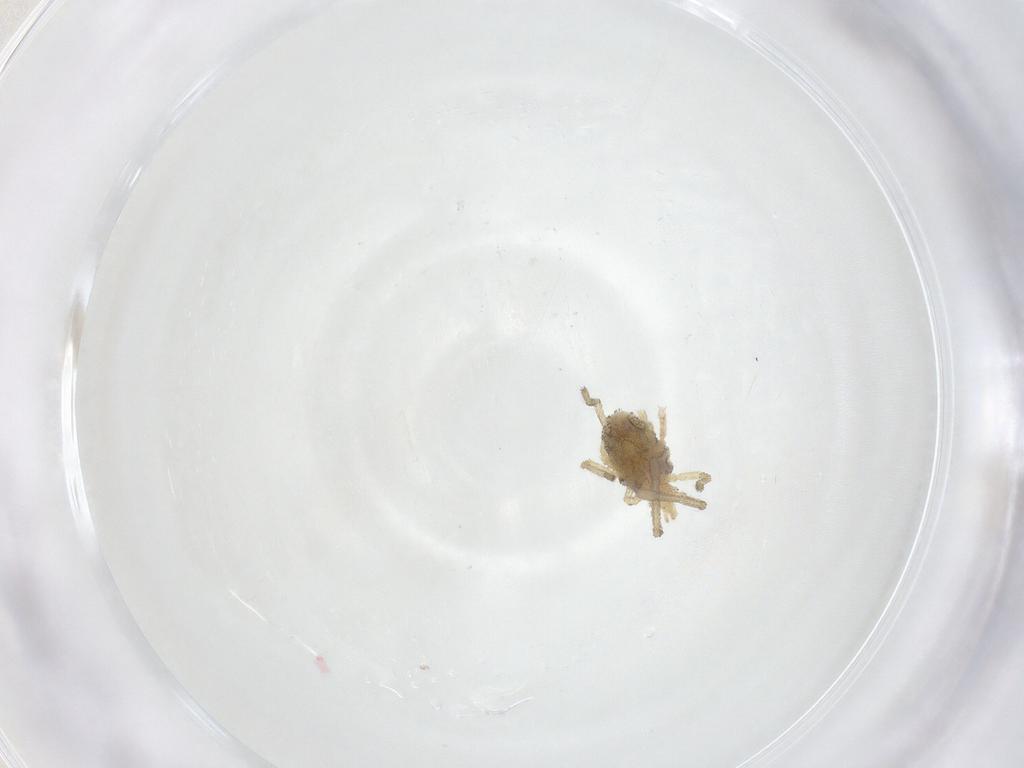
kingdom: Animalia
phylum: Arthropoda
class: Arachnida
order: Trombidiformes
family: Smarididae
